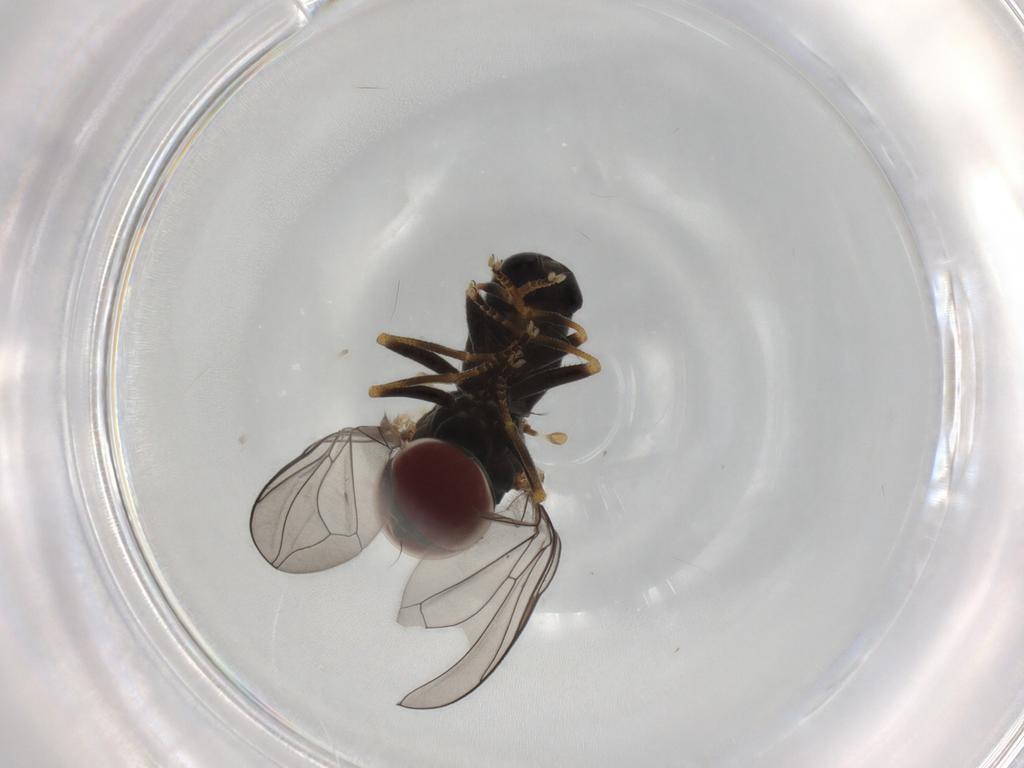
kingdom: Animalia
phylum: Arthropoda
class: Insecta
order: Diptera
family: Pipunculidae
